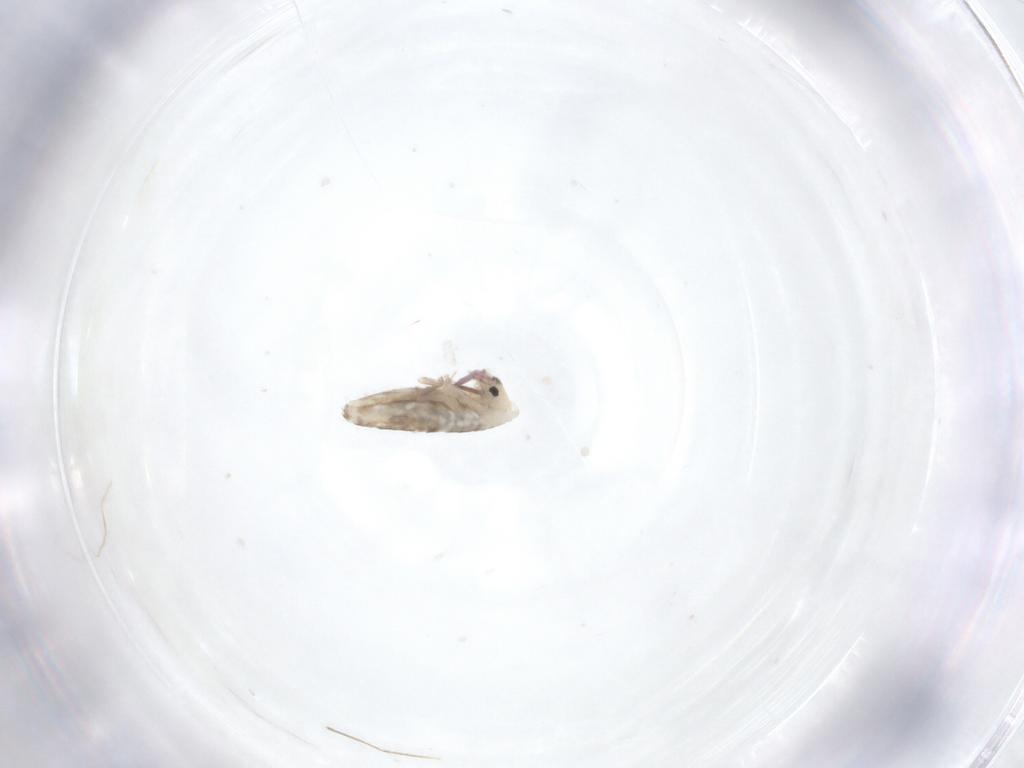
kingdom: Animalia
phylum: Arthropoda
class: Collembola
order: Entomobryomorpha
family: Entomobryidae
